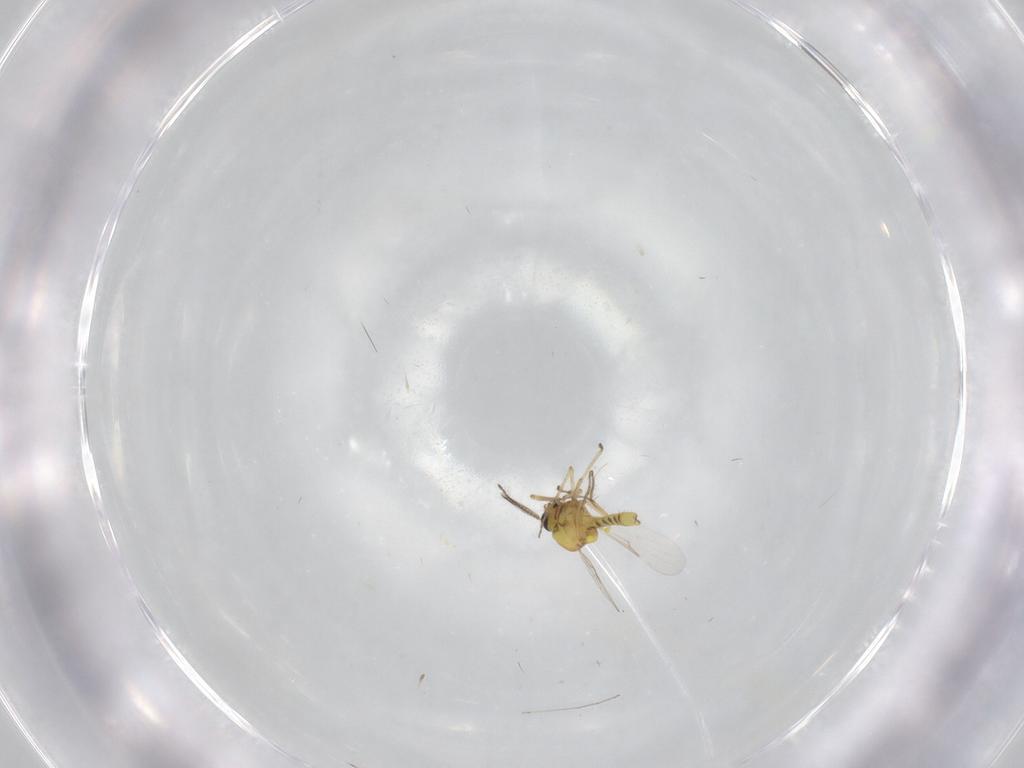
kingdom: Animalia
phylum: Arthropoda
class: Insecta
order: Diptera
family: Ceratopogonidae
